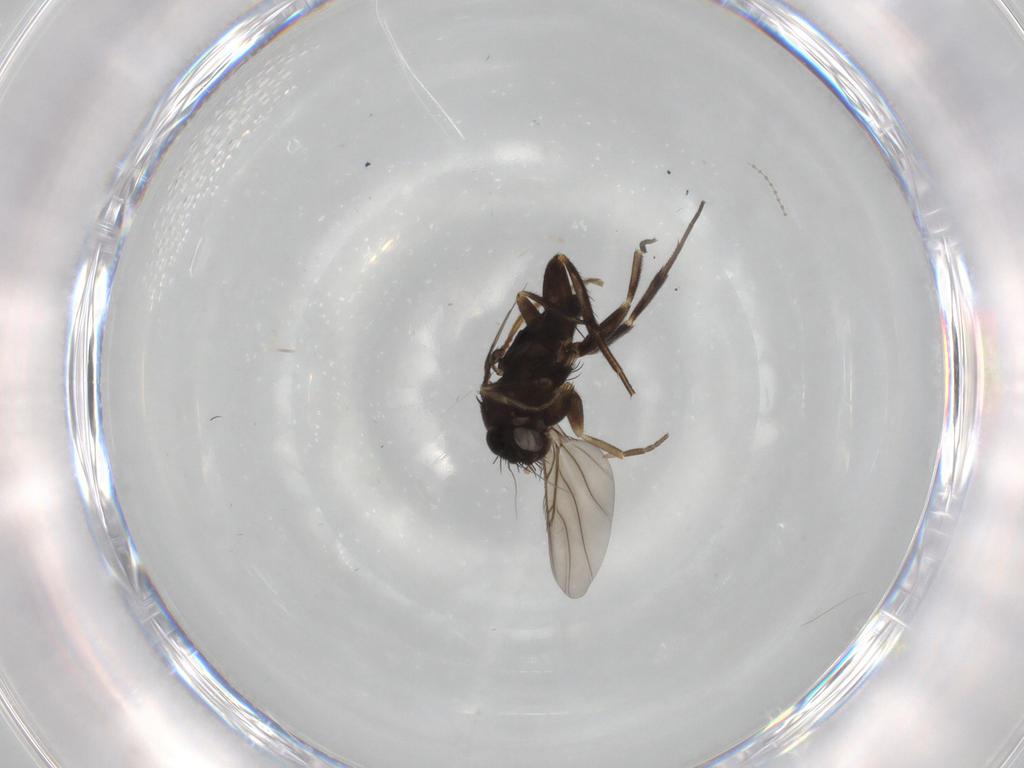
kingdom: Animalia
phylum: Arthropoda
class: Insecta
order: Diptera
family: Phoridae
